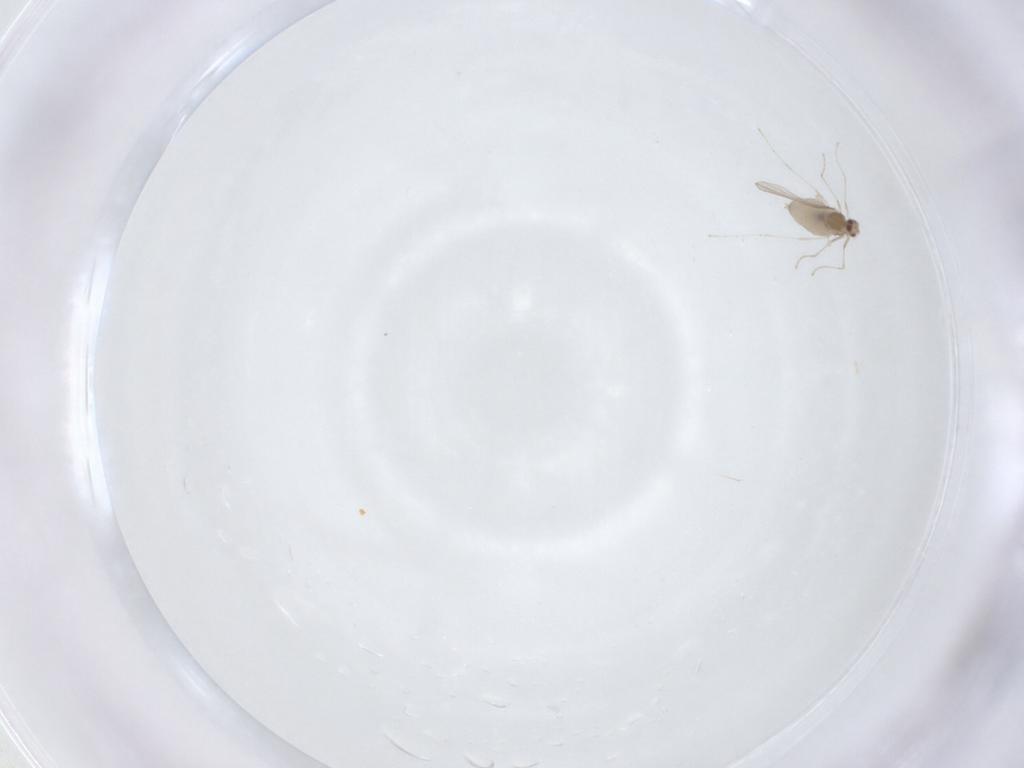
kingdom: Animalia
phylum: Arthropoda
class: Insecta
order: Diptera
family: Cecidomyiidae
